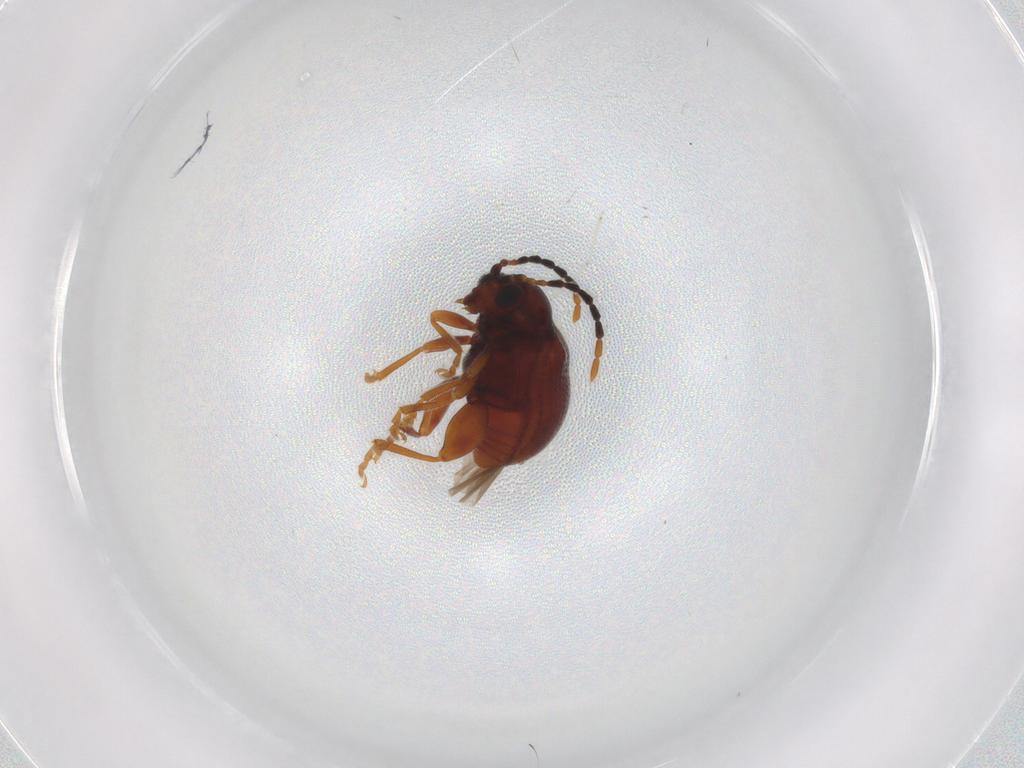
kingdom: Animalia
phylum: Arthropoda
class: Insecta
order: Coleoptera
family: Chrysomelidae
